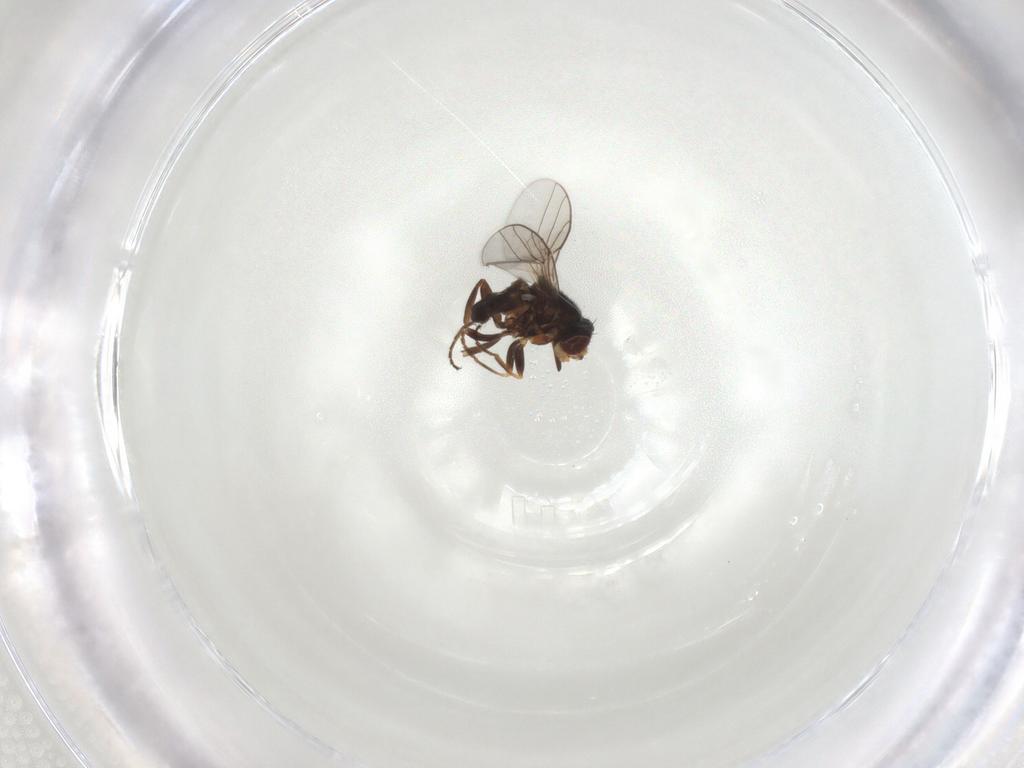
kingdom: Animalia
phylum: Arthropoda
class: Insecta
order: Diptera
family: Chloropidae
